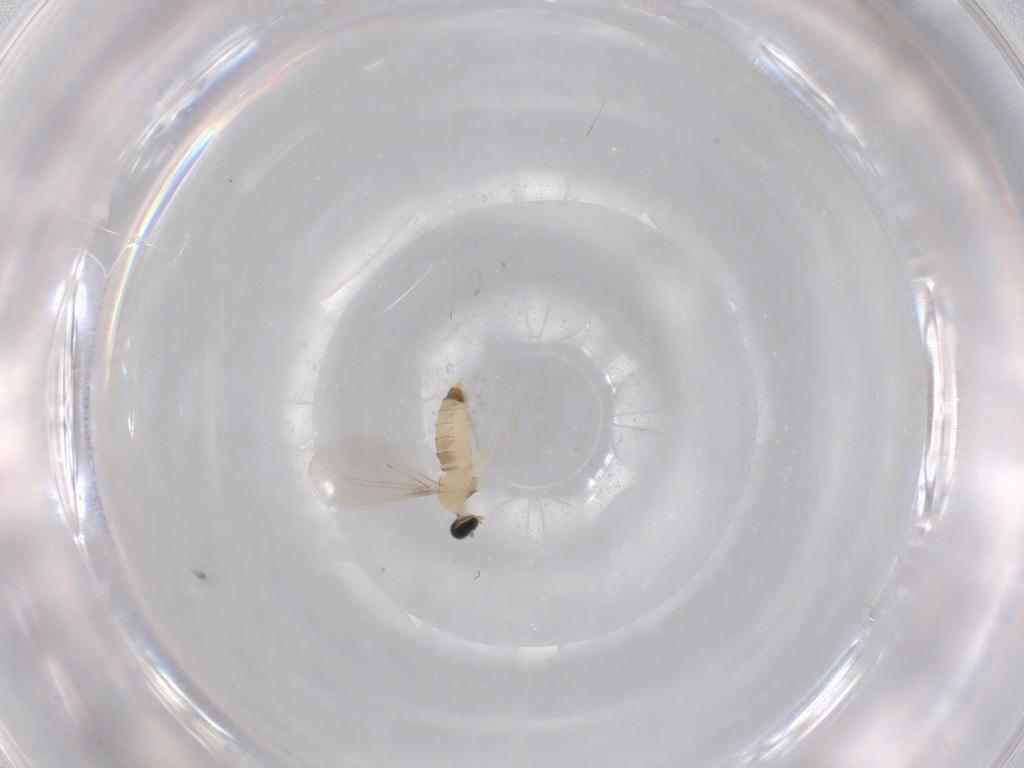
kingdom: Animalia
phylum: Arthropoda
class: Insecta
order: Diptera
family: Cecidomyiidae
